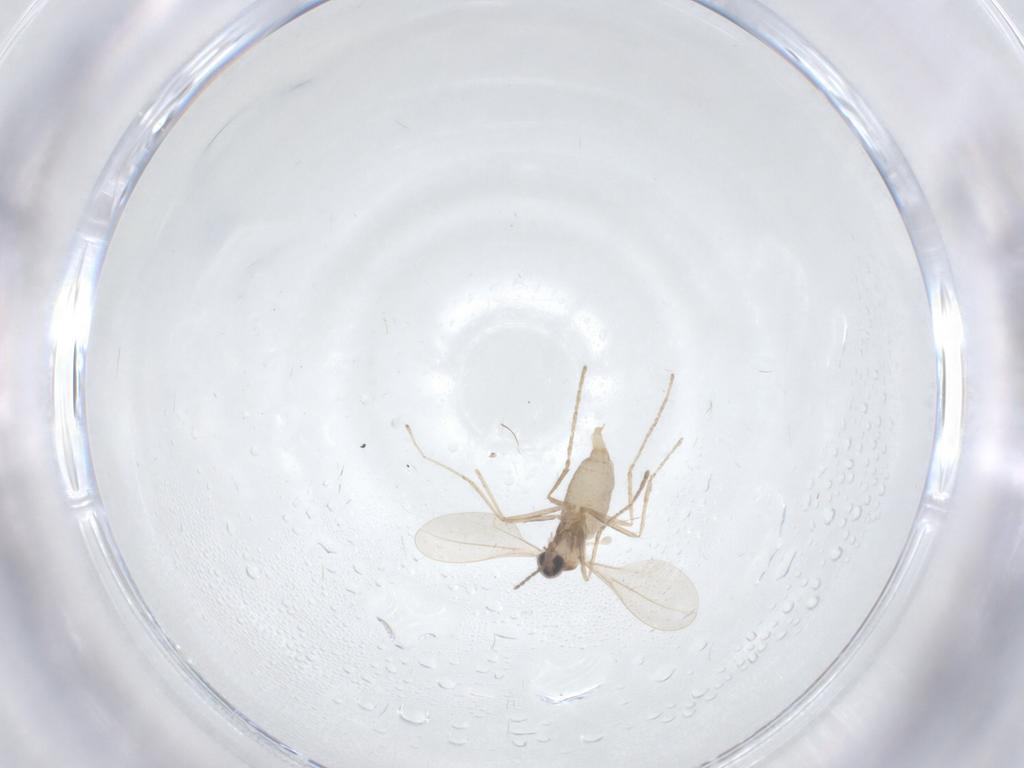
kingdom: Animalia
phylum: Arthropoda
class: Insecta
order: Diptera
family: Cecidomyiidae
